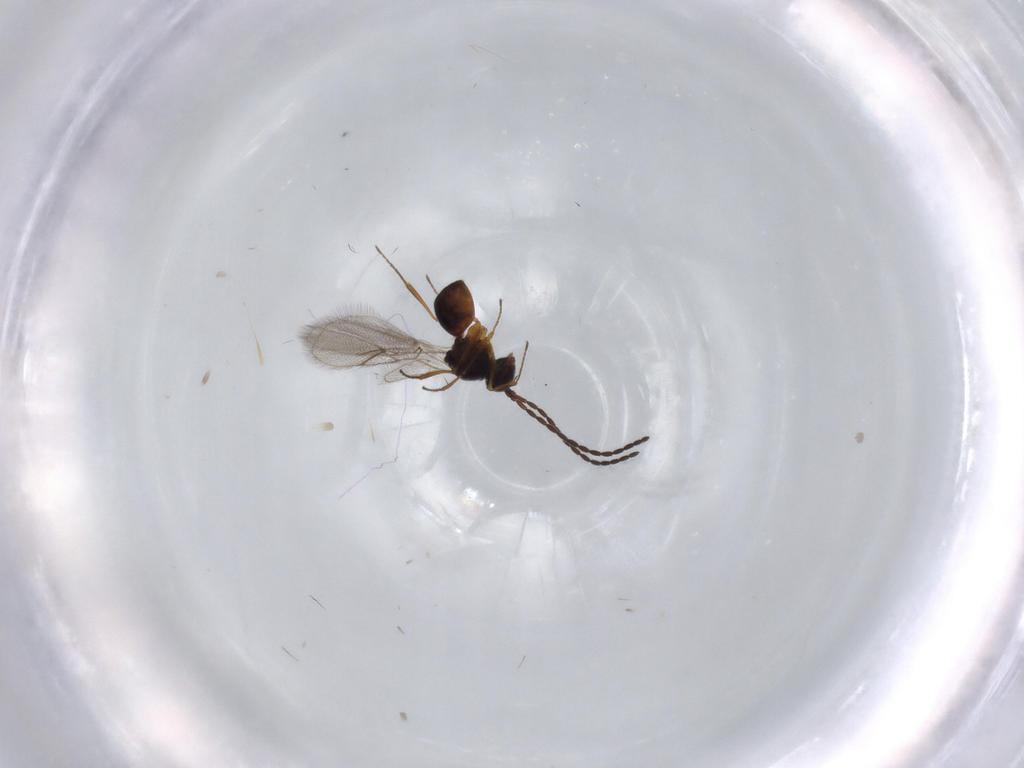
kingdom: Animalia
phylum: Arthropoda
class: Insecta
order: Hymenoptera
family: Figitidae
